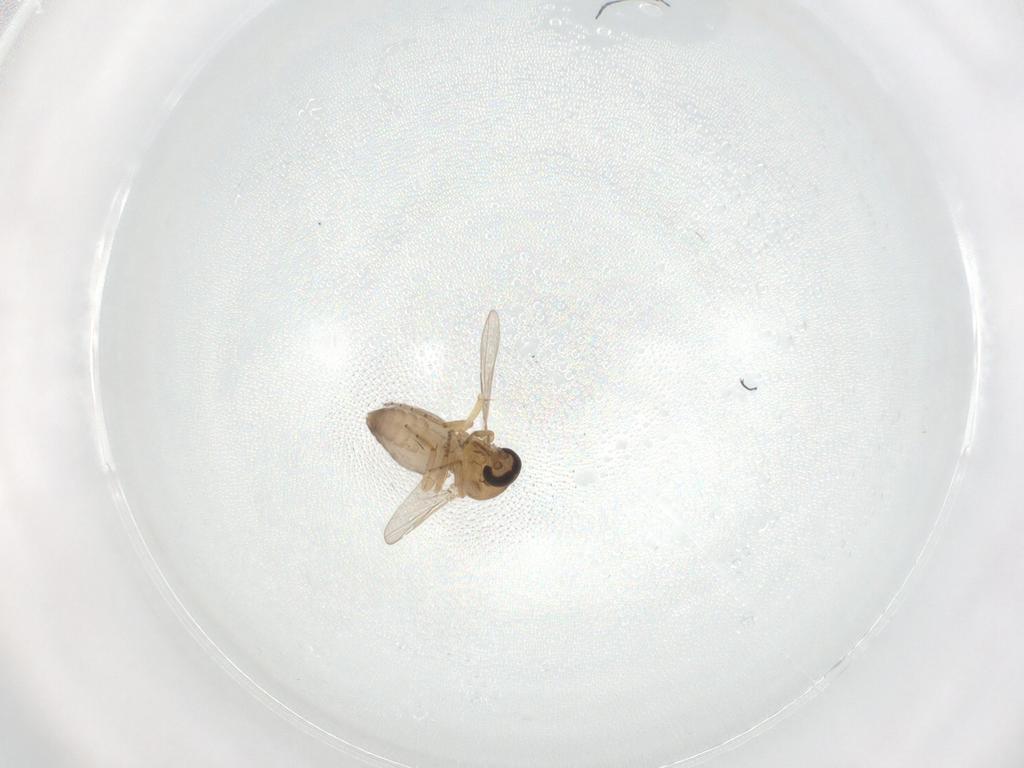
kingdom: Animalia
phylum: Arthropoda
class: Insecta
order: Diptera
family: Ceratopogonidae
